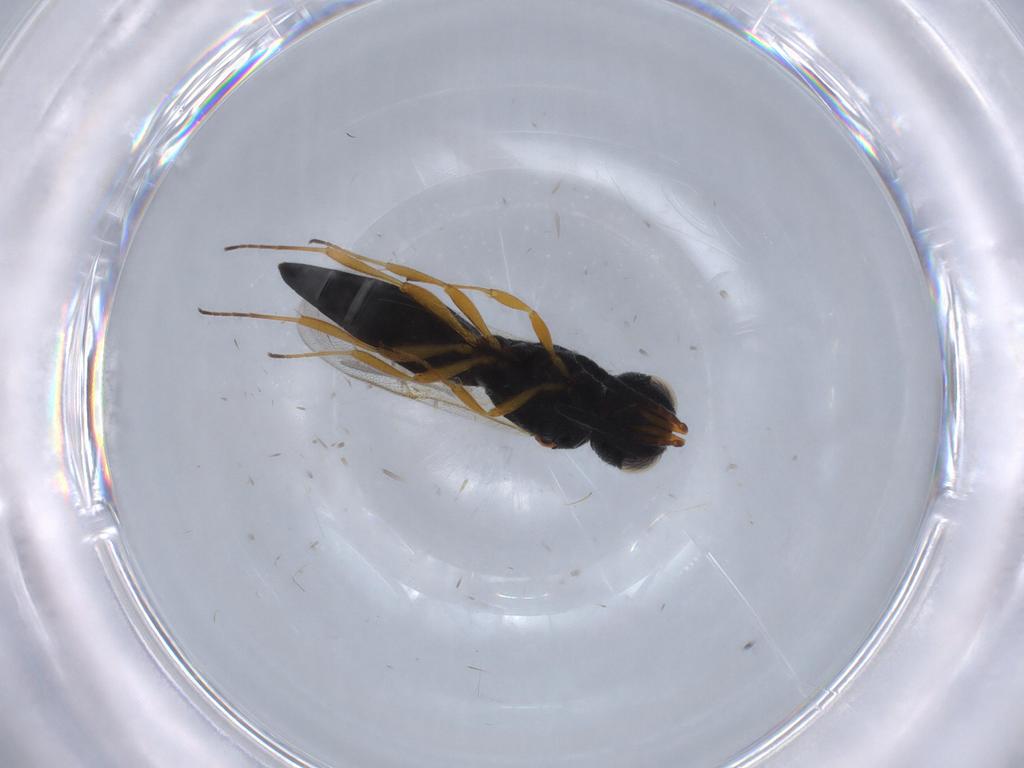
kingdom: Animalia
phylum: Arthropoda
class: Insecta
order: Hymenoptera
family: Scelionidae
